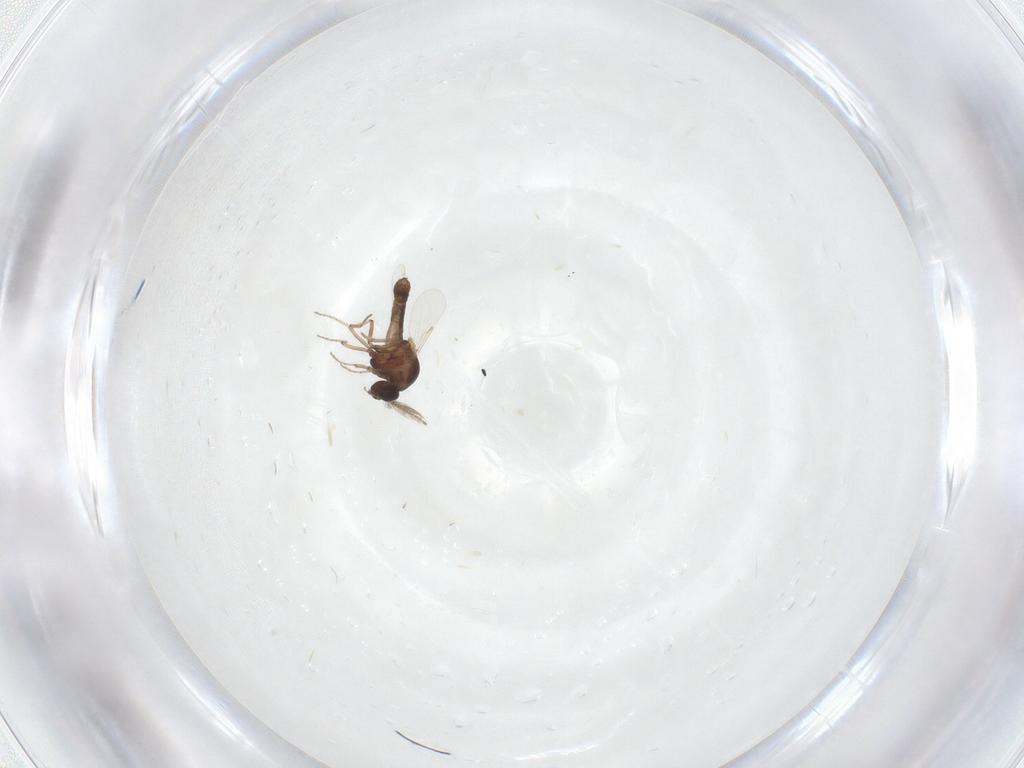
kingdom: Animalia
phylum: Arthropoda
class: Insecta
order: Diptera
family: Ceratopogonidae
